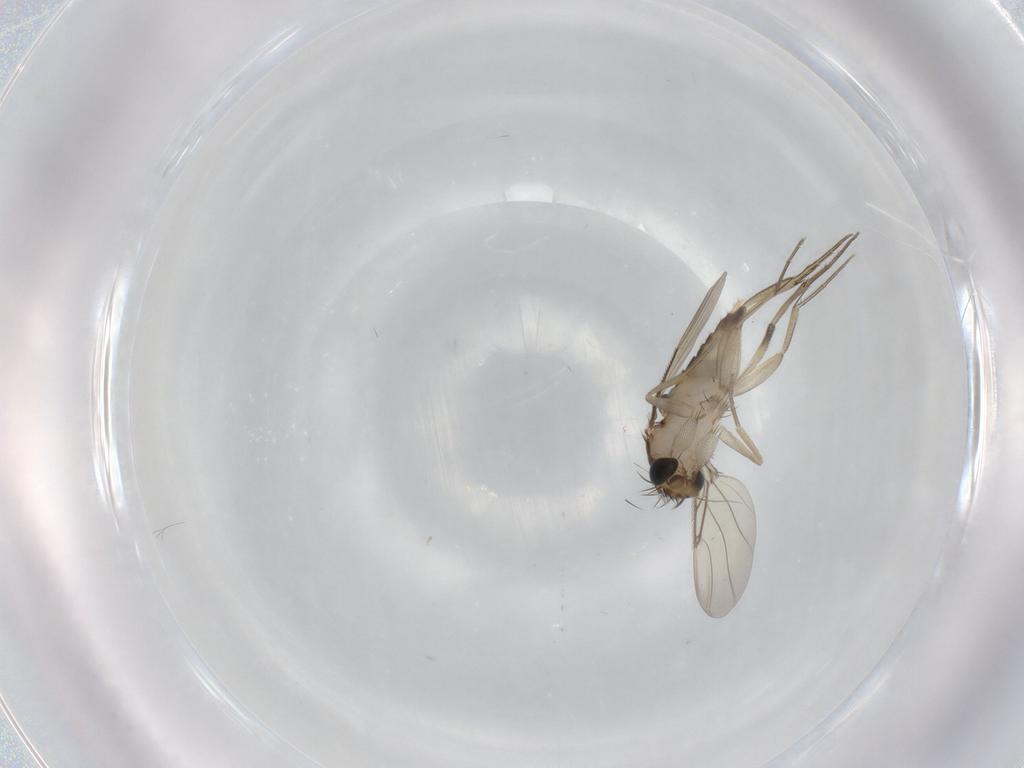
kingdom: Animalia
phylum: Arthropoda
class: Insecta
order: Diptera
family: Phoridae
